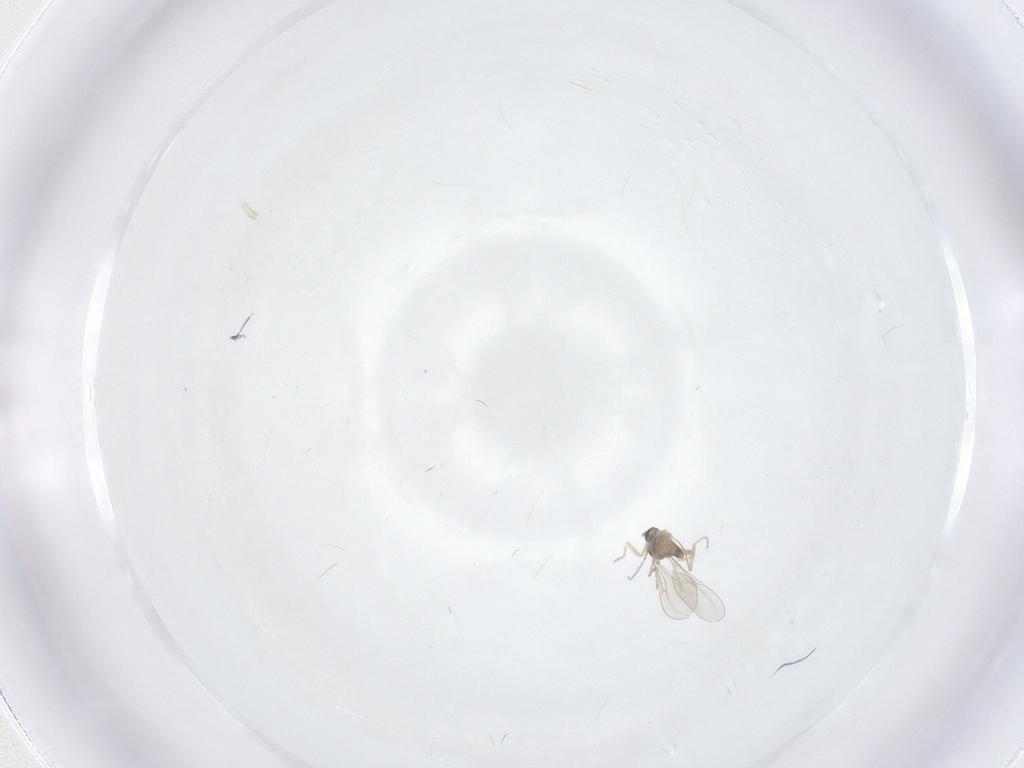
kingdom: Animalia
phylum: Arthropoda
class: Insecta
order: Diptera
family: Cecidomyiidae
